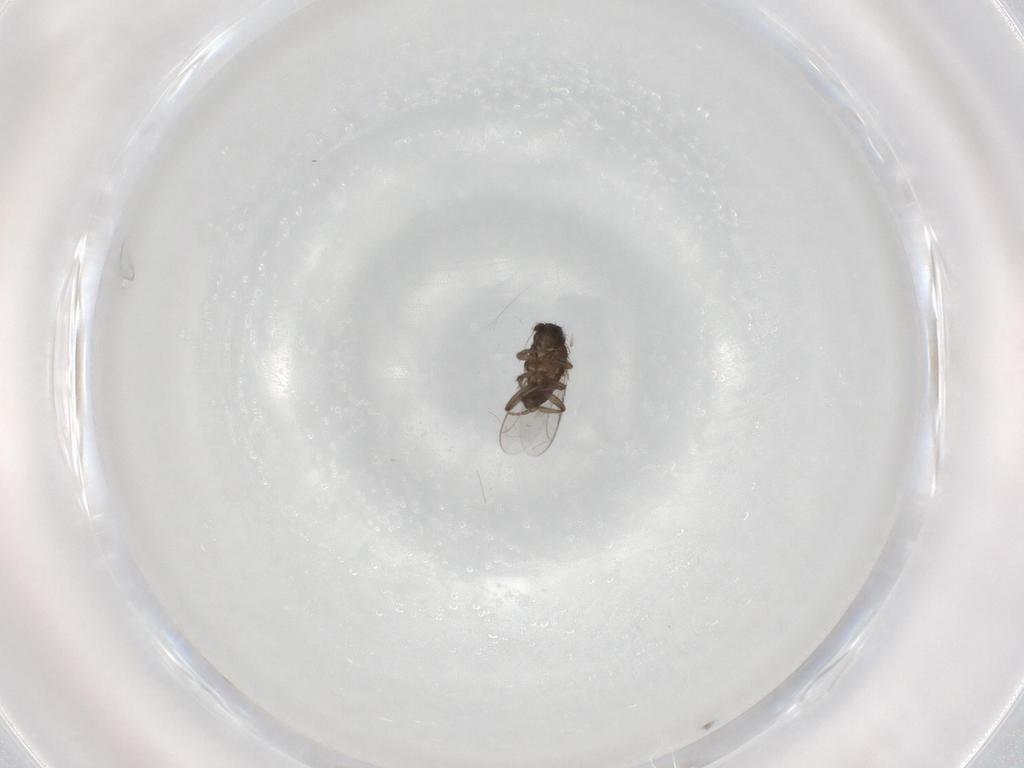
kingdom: Animalia
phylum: Arthropoda
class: Insecta
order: Diptera
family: Sphaeroceridae
